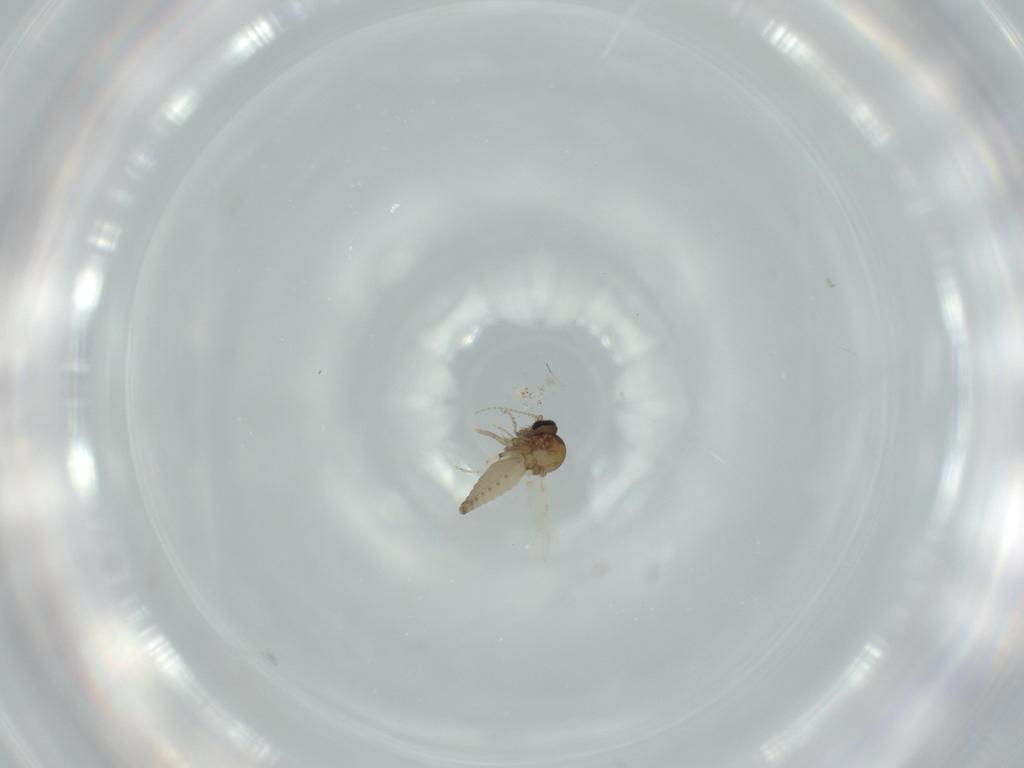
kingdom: Animalia
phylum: Arthropoda
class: Insecta
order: Diptera
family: Ceratopogonidae
